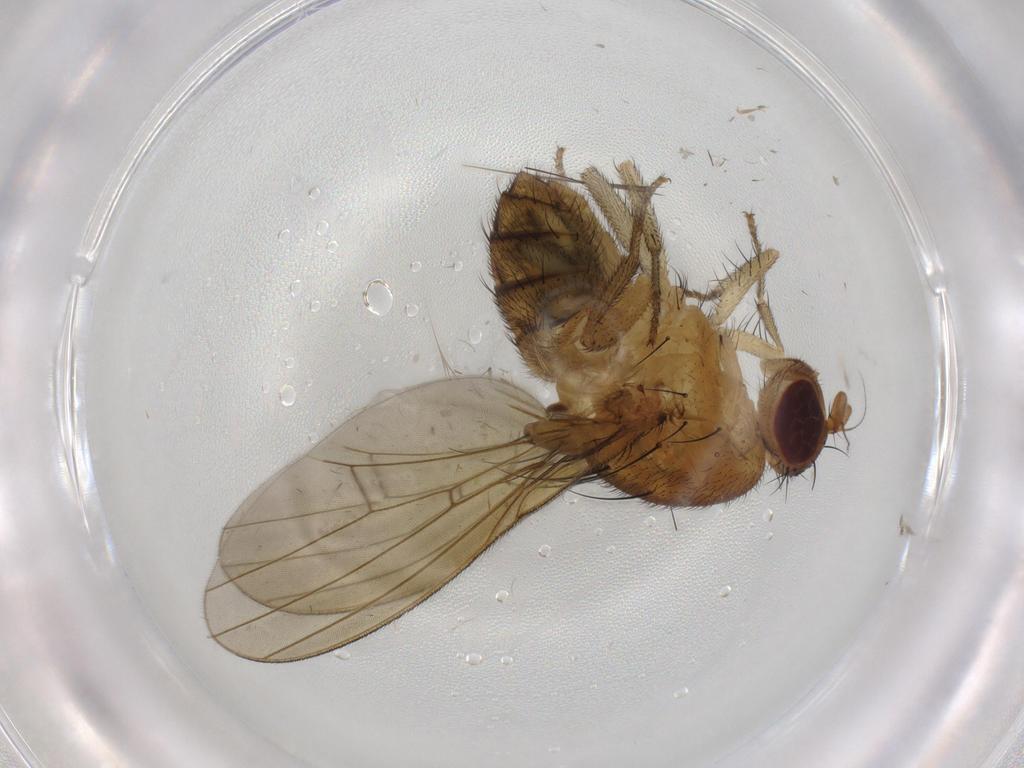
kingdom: Animalia
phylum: Arthropoda
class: Insecta
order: Diptera
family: Lauxaniidae
